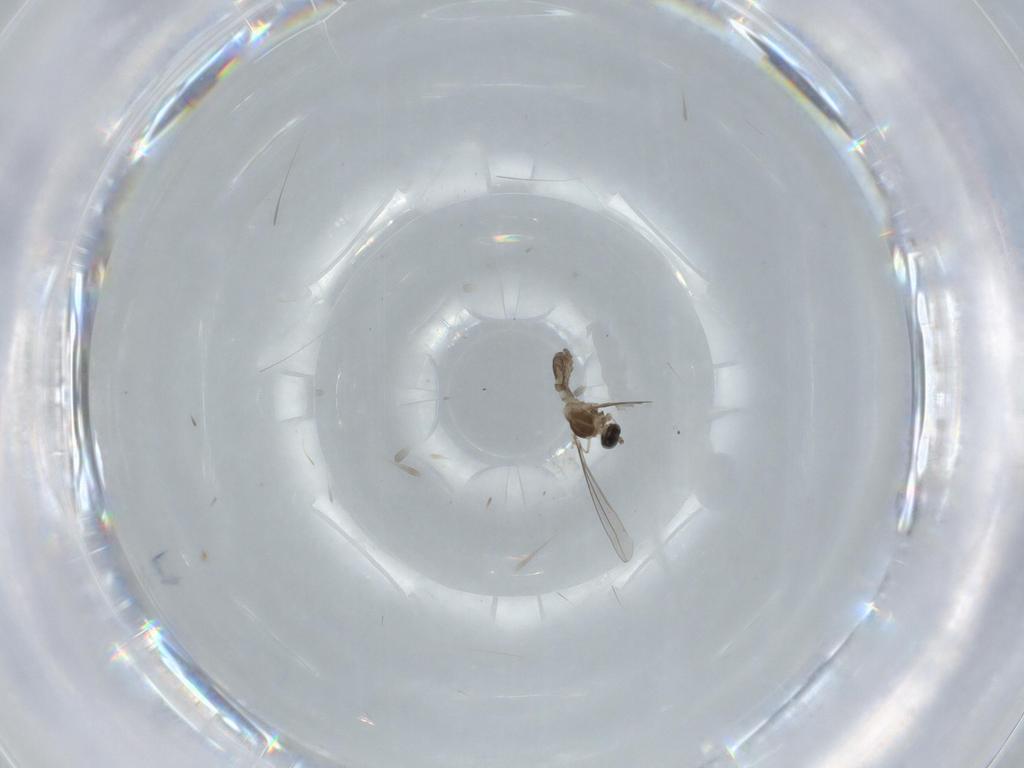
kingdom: Animalia
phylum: Arthropoda
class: Insecta
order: Diptera
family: Cecidomyiidae
